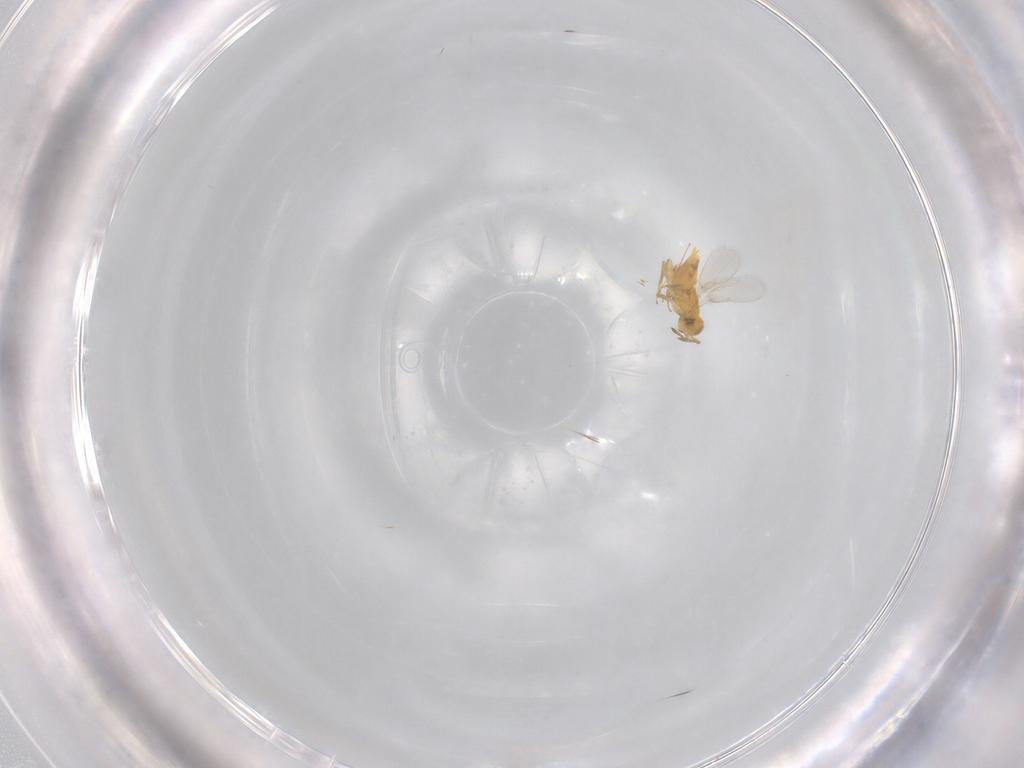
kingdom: Animalia
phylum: Arthropoda
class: Insecta
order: Hymenoptera
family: Aphelinidae
